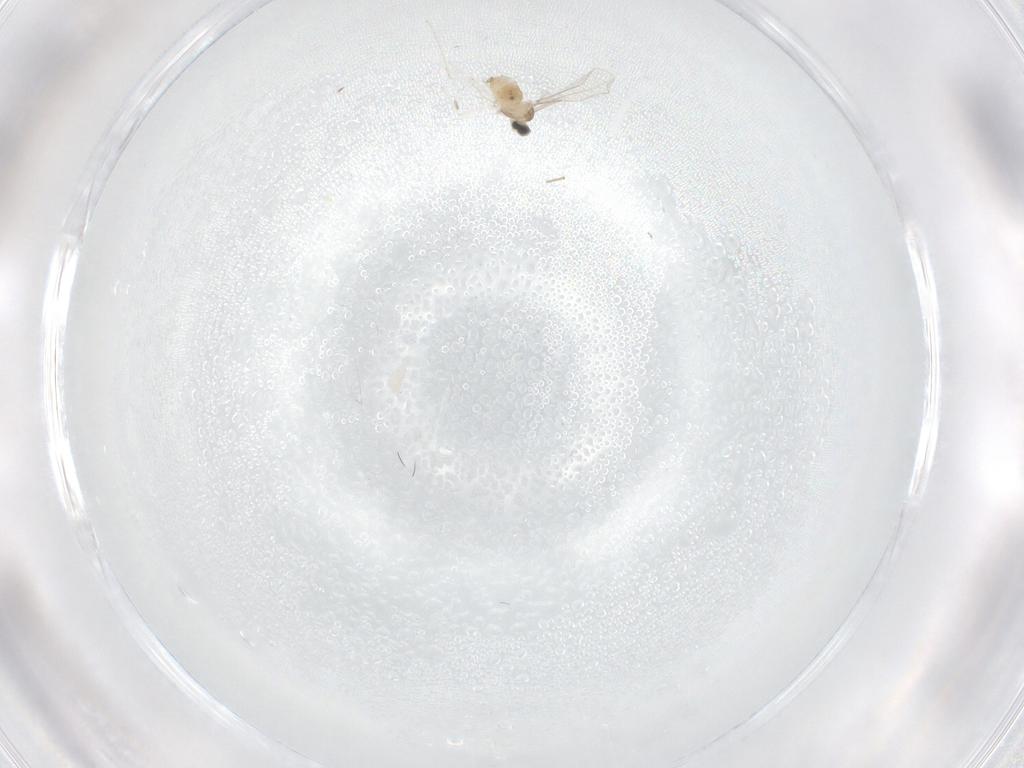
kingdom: Animalia
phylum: Arthropoda
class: Insecta
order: Diptera
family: Cecidomyiidae
